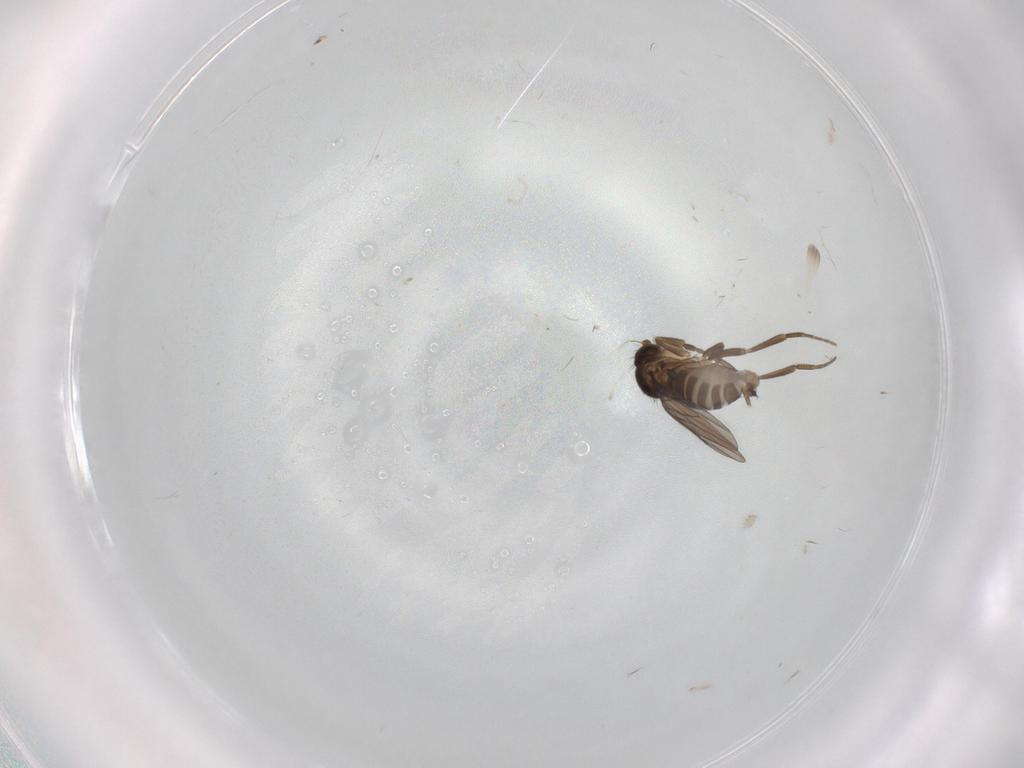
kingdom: Animalia
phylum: Arthropoda
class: Insecta
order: Diptera
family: Phoridae
